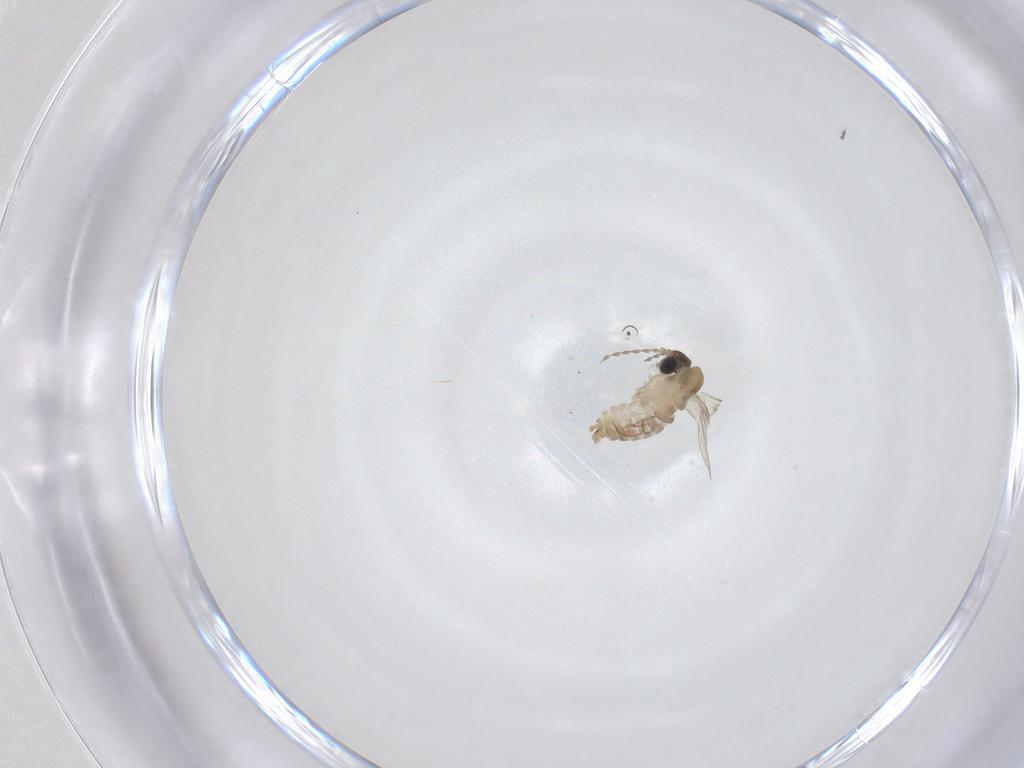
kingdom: Animalia
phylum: Arthropoda
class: Insecta
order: Diptera
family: Psychodidae
